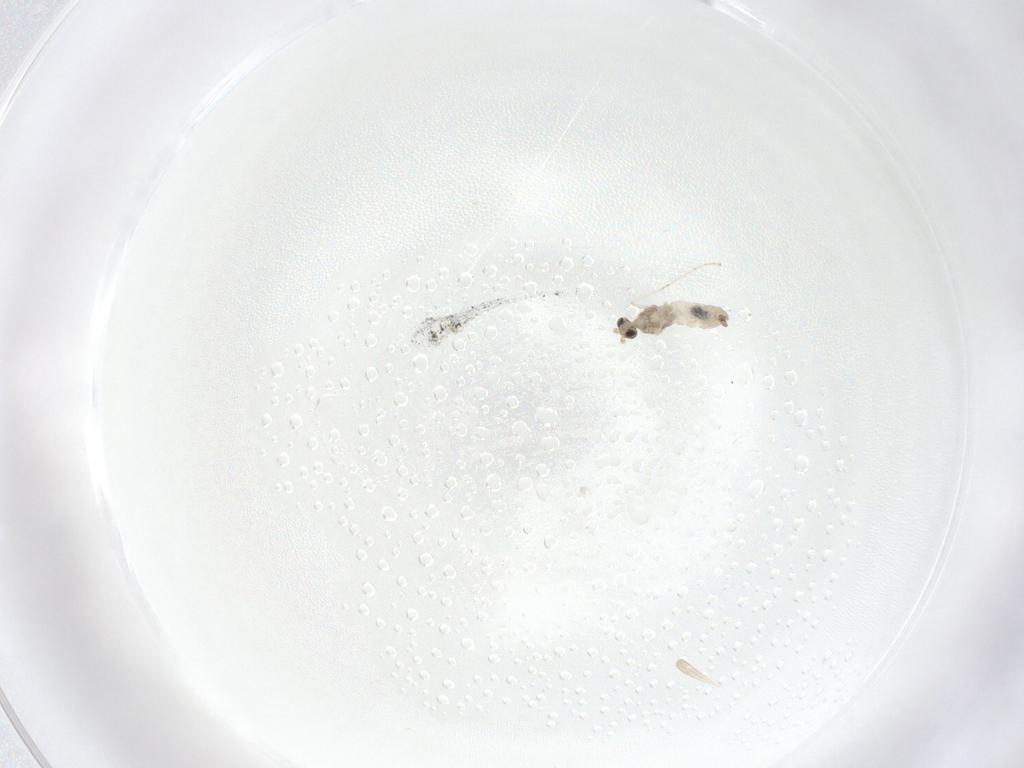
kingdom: Animalia
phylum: Arthropoda
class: Insecta
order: Diptera
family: Cecidomyiidae
